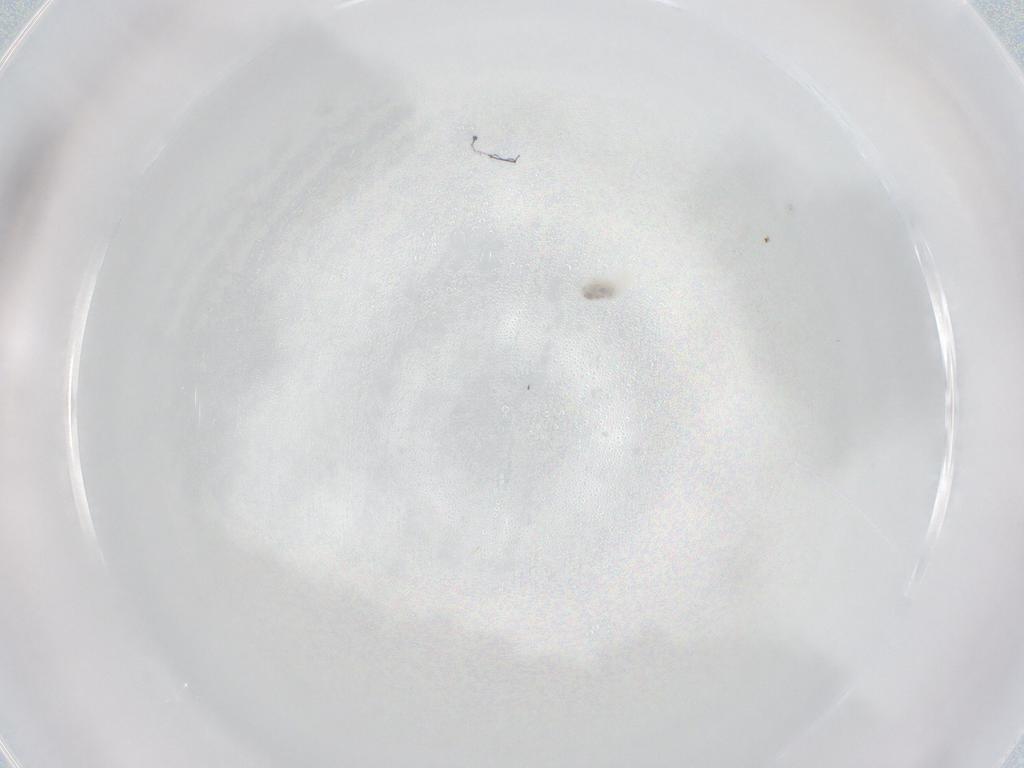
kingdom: Animalia
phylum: Arthropoda
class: Arachnida
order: Trombidiformes
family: Rhagidiidae
